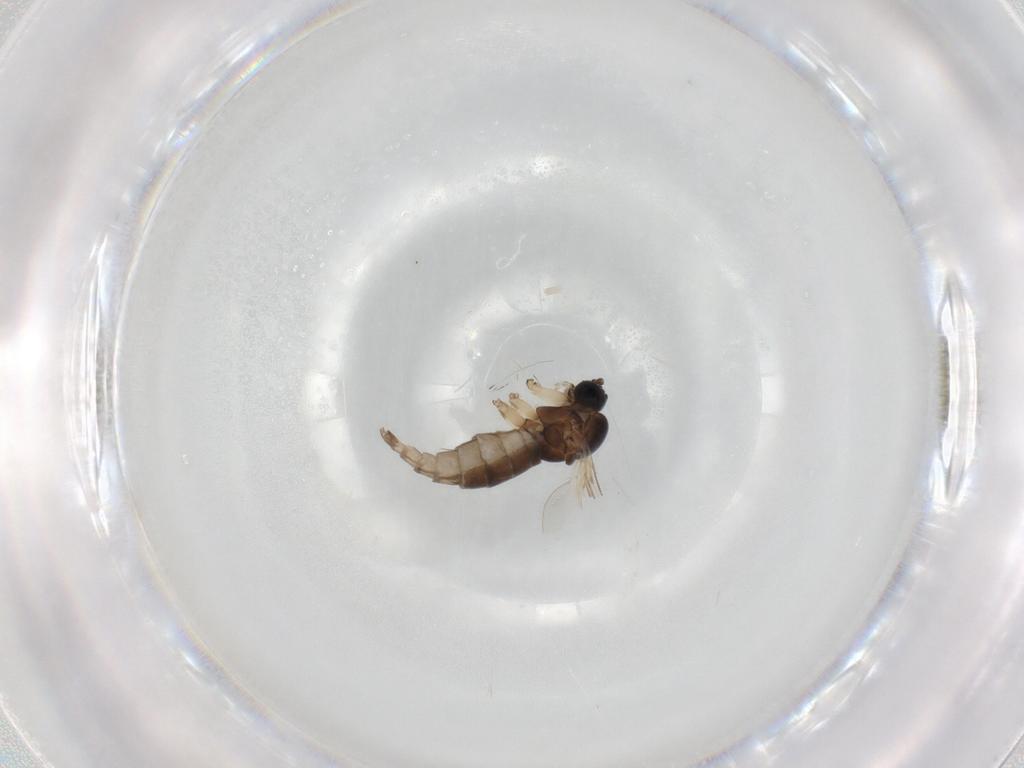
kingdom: Animalia
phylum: Arthropoda
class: Insecta
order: Diptera
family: Sciaridae
